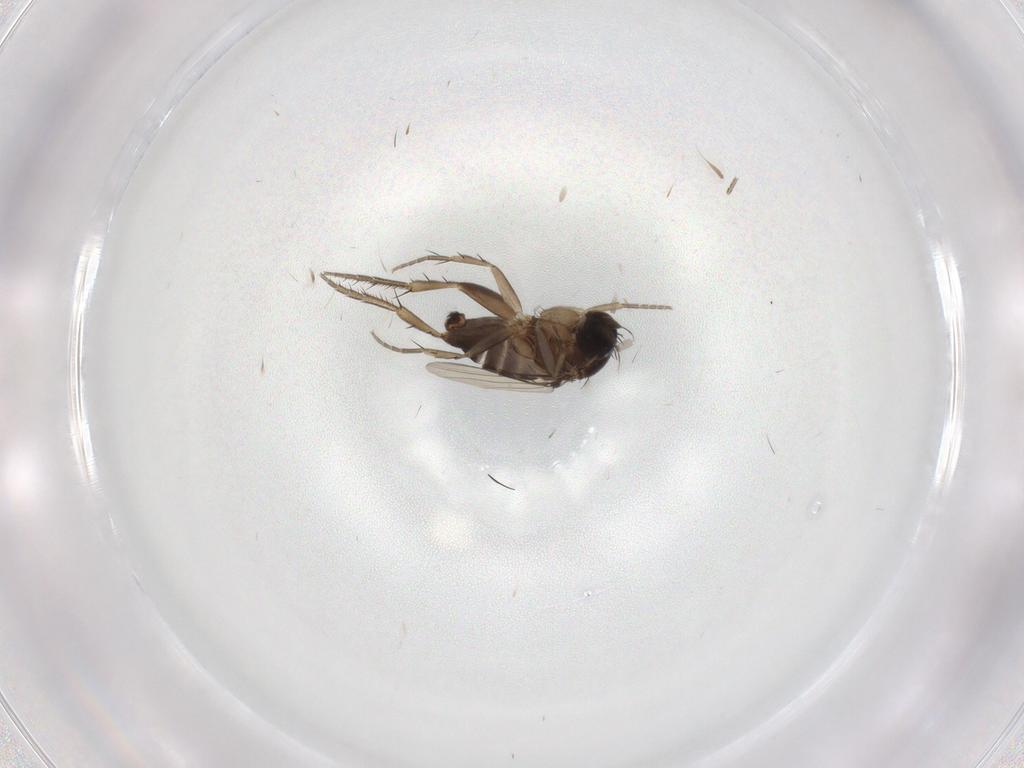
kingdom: Animalia
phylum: Arthropoda
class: Insecta
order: Diptera
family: Phoridae
